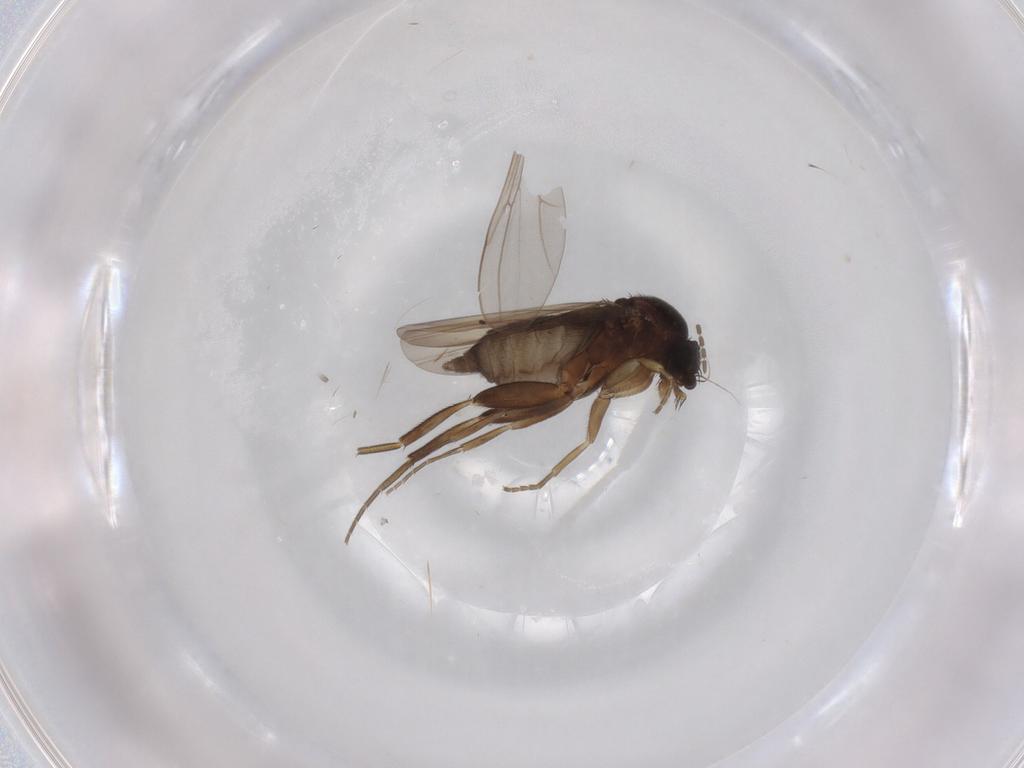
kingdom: Animalia
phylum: Arthropoda
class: Insecta
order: Diptera
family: Phoridae
